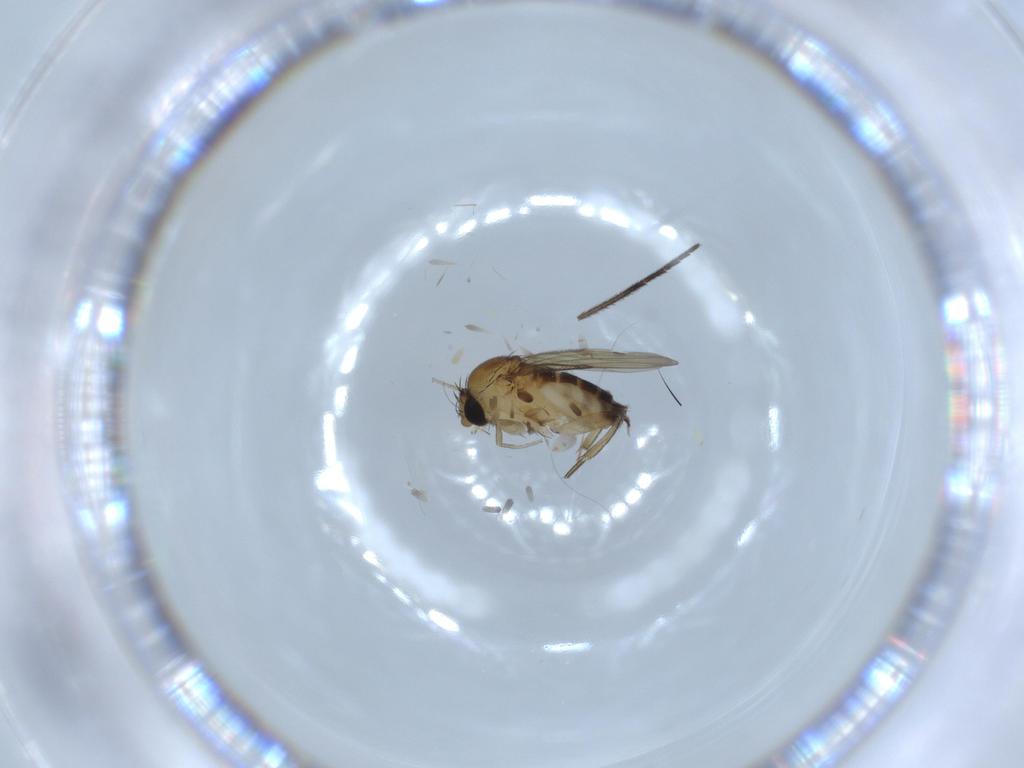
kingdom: Animalia
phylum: Arthropoda
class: Insecta
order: Diptera
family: Phoridae
